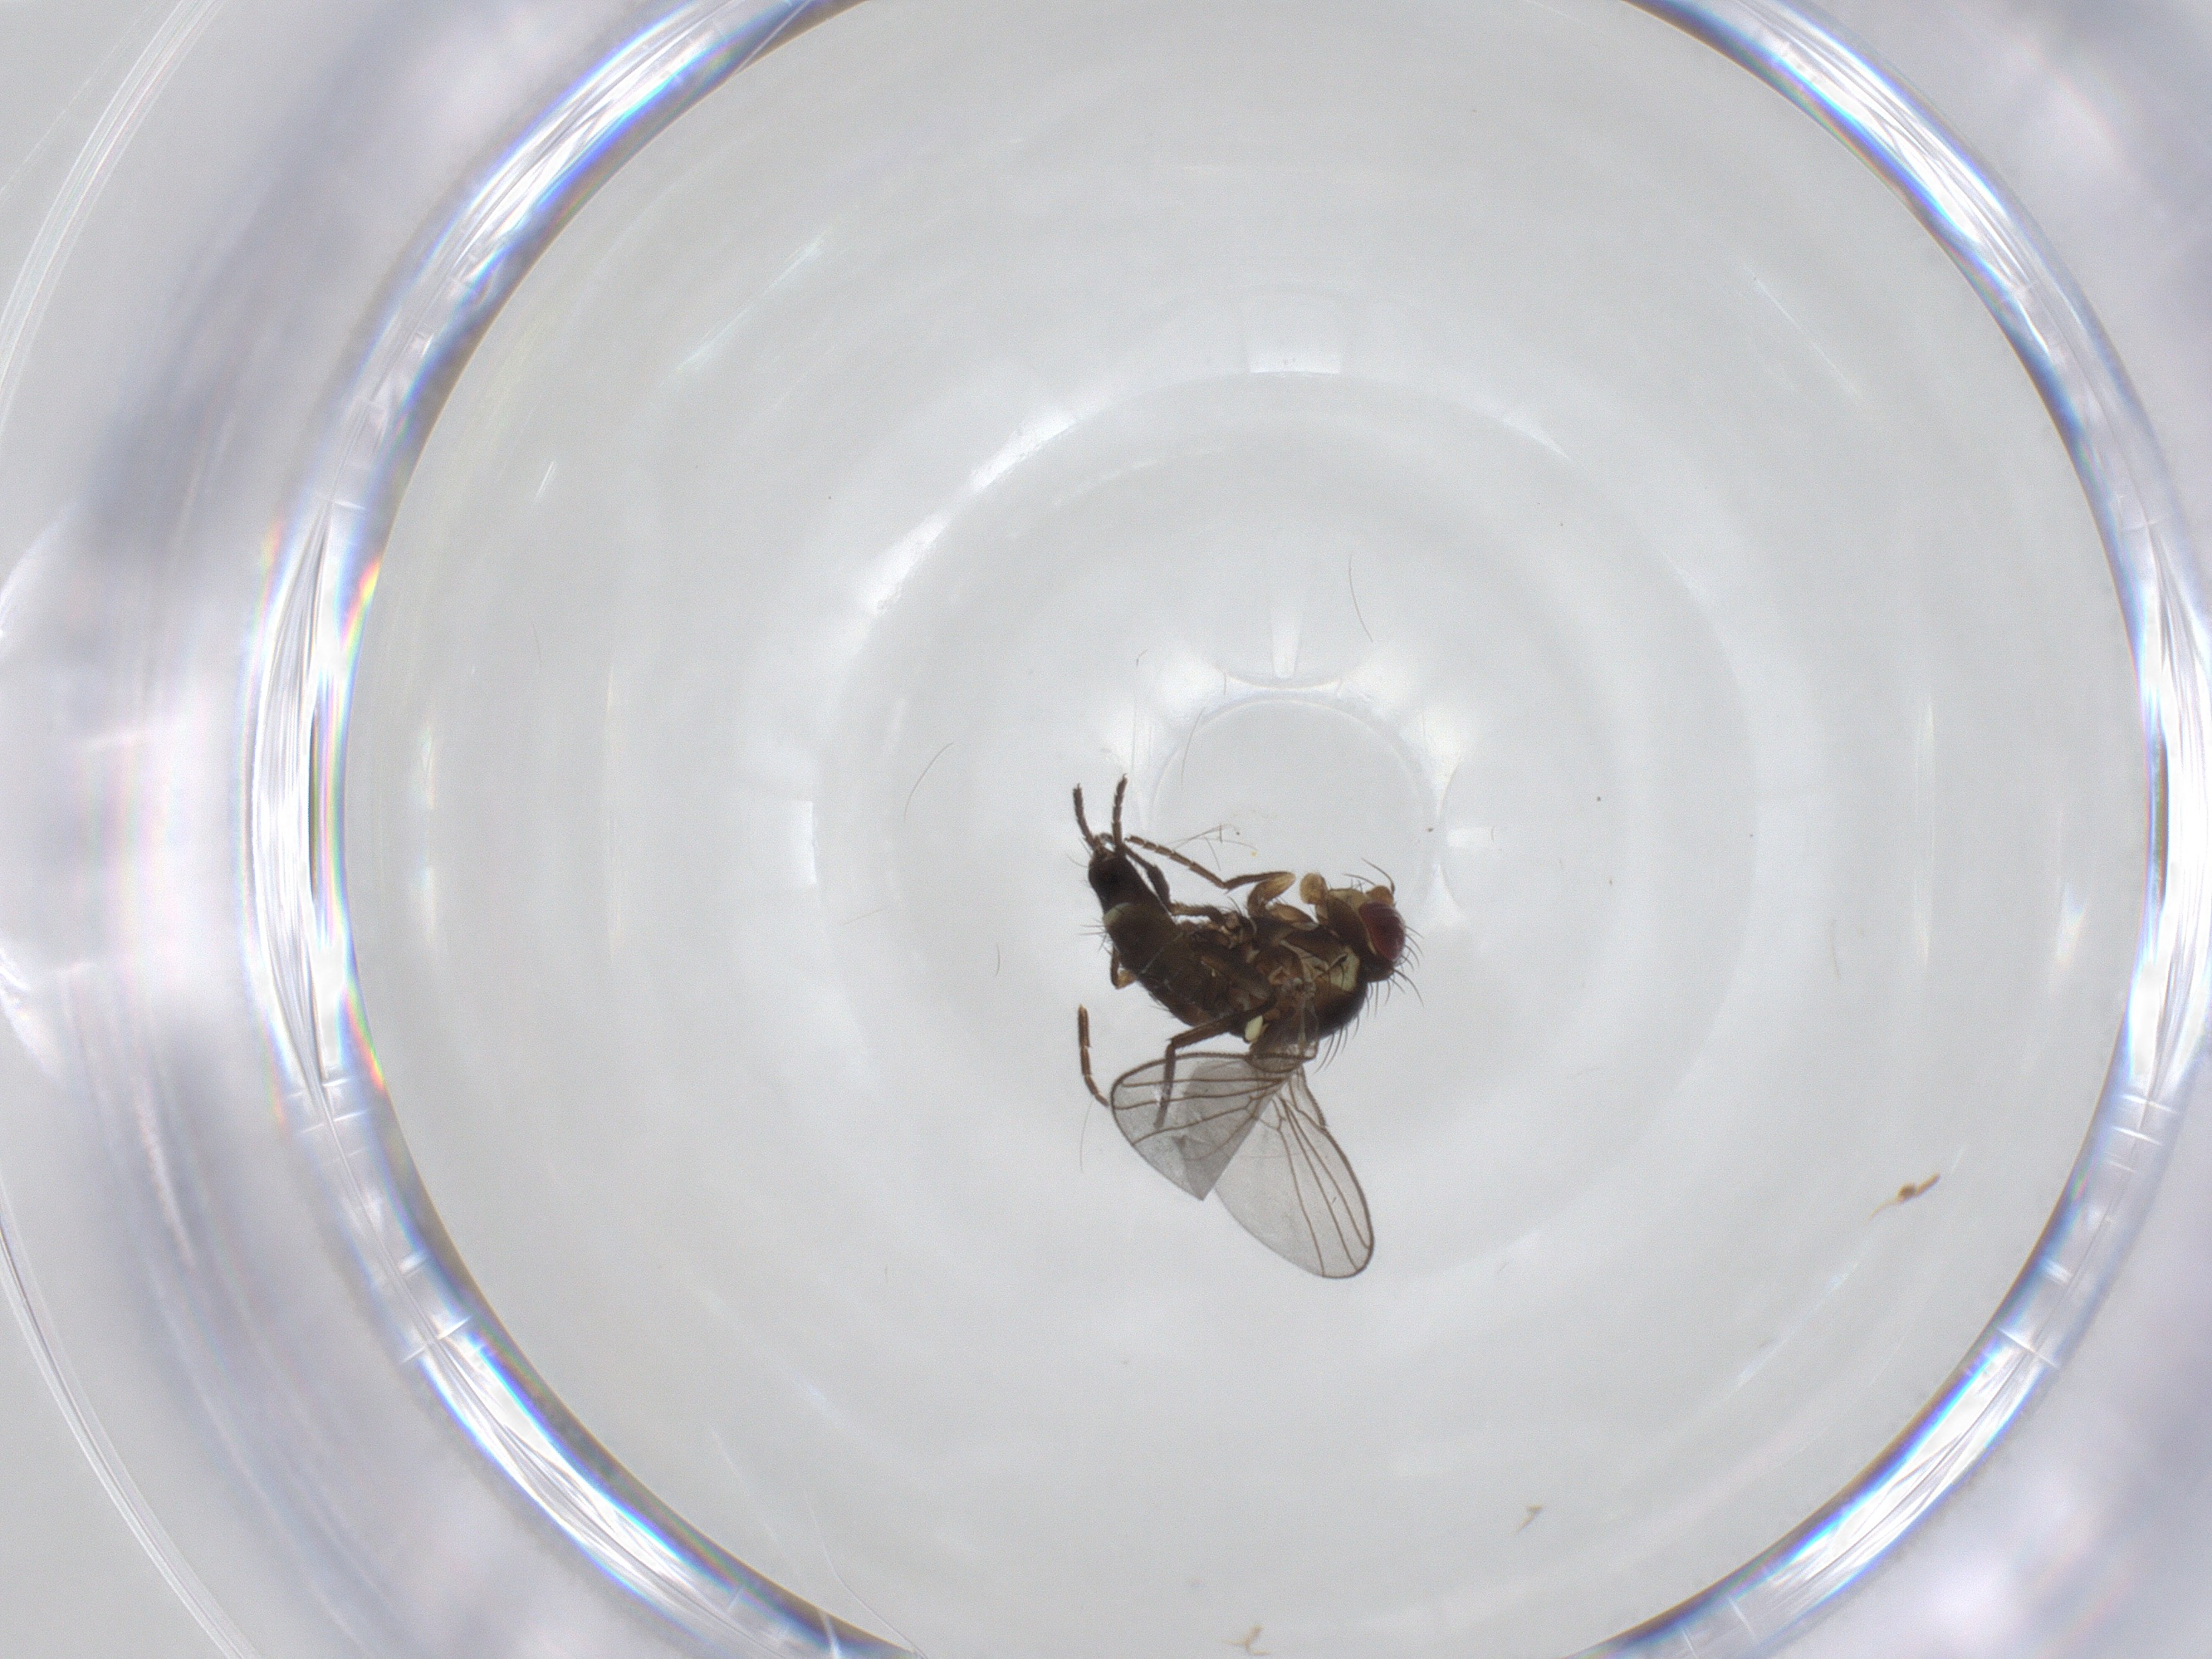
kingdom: Animalia
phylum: Arthropoda
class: Insecta
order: Diptera
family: Agromyzidae
